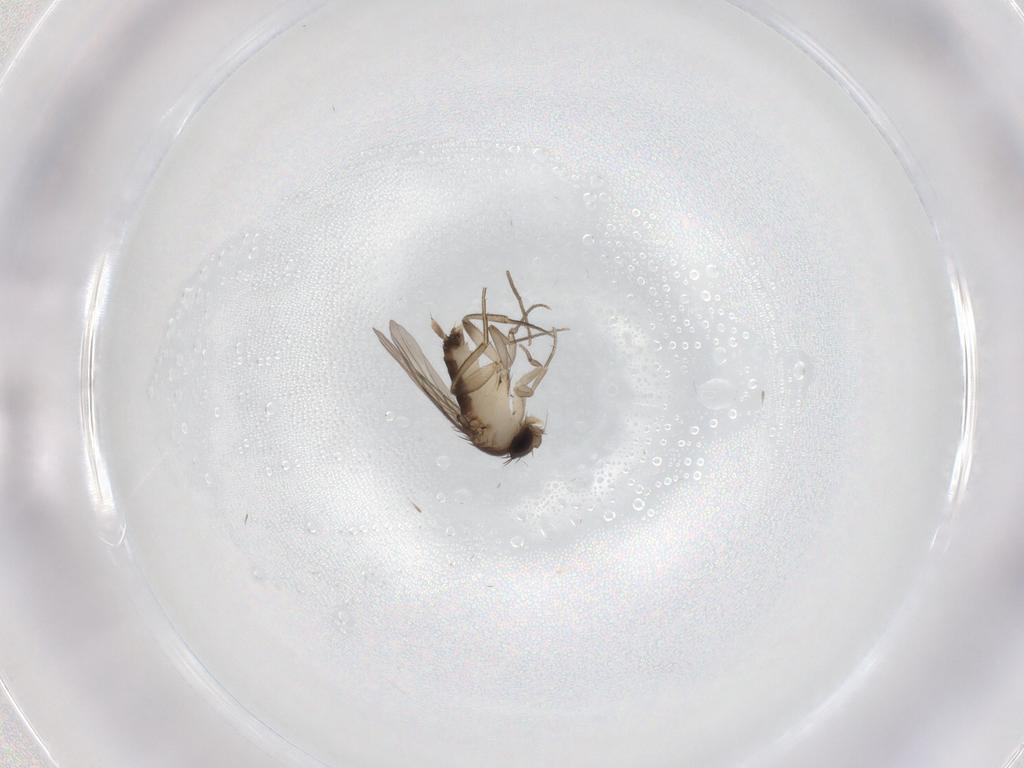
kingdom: Animalia
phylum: Arthropoda
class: Insecta
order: Diptera
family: Phoridae
